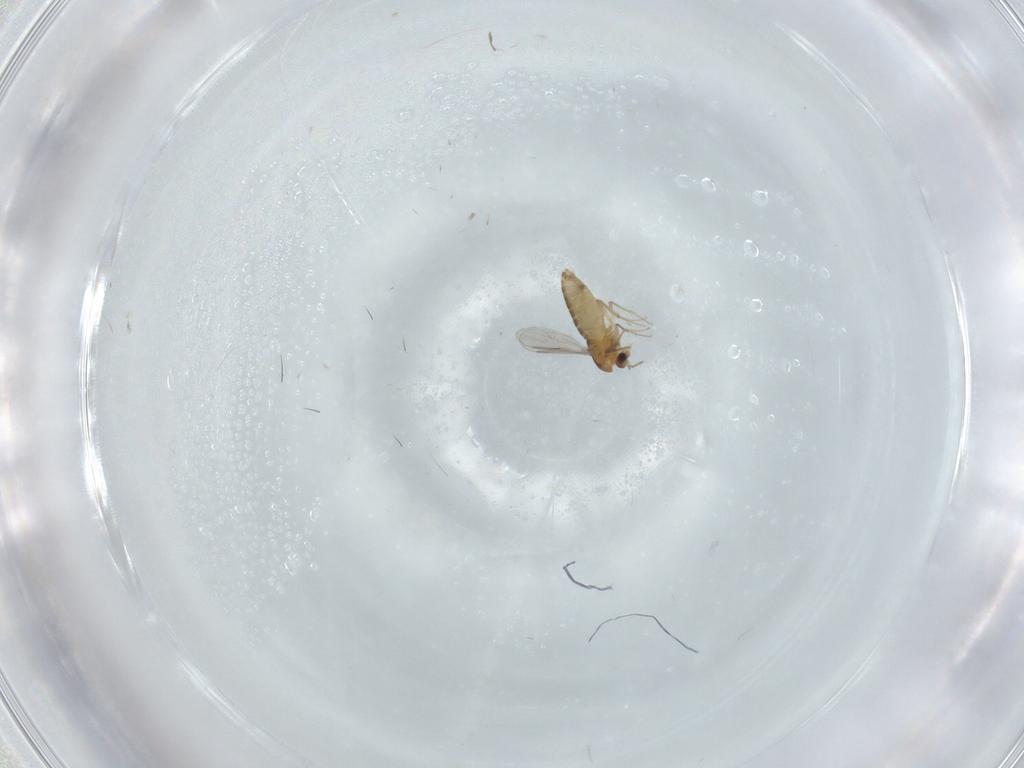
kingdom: Animalia
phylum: Arthropoda
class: Insecta
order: Diptera
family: Chironomidae
